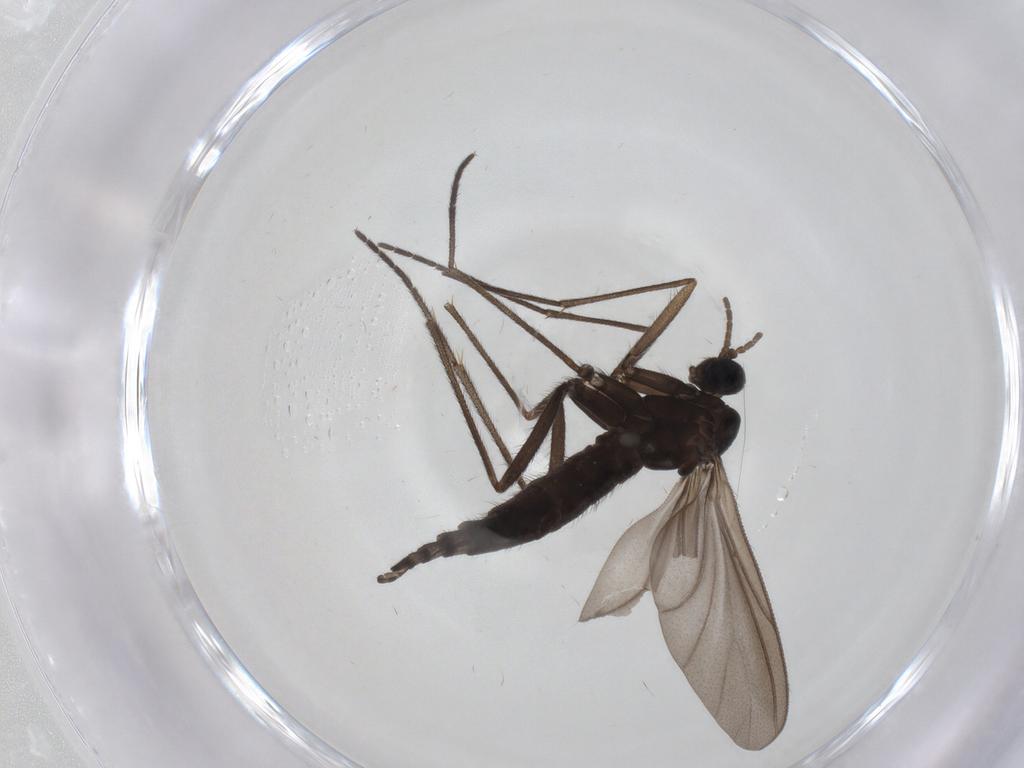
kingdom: Animalia
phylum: Arthropoda
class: Insecta
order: Diptera
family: Sciaridae
